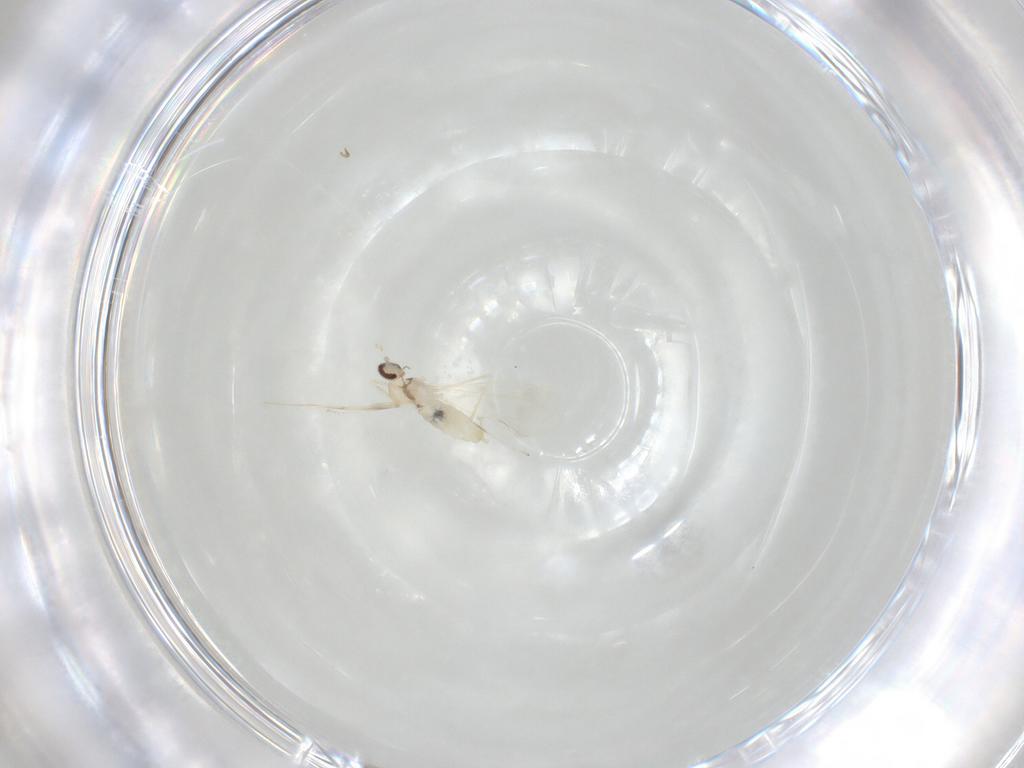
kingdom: Animalia
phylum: Arthropoda
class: Insecta
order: Diptera
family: Cecidomyiidae
